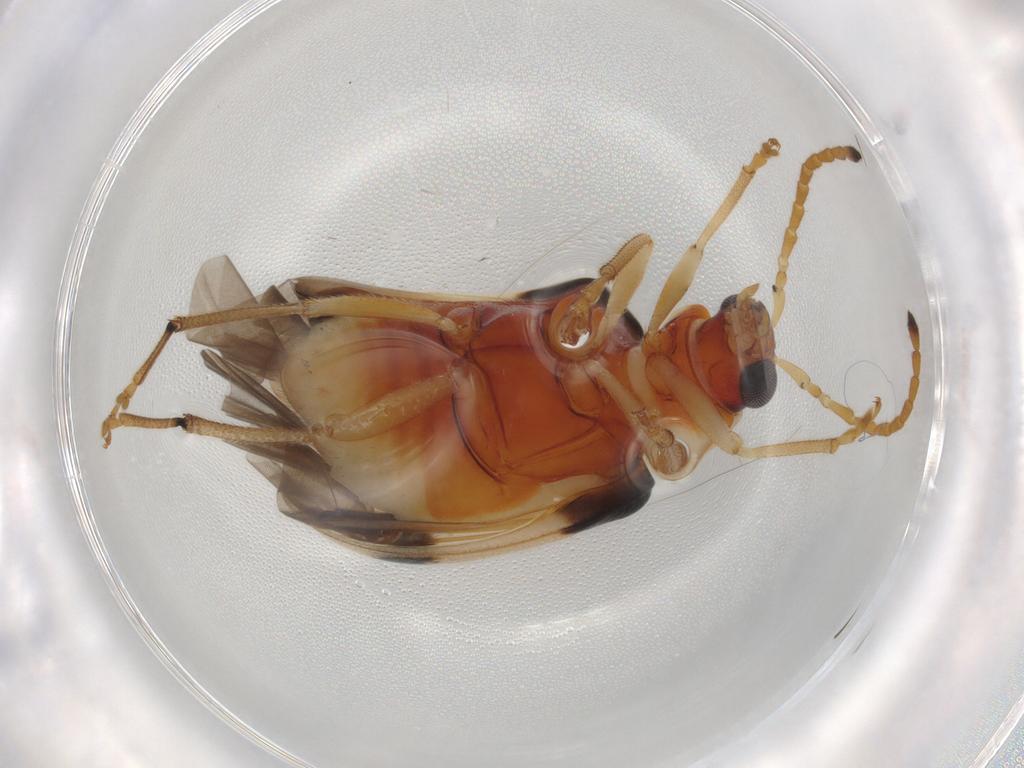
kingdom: Animalia
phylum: Arthropoda
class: Insecta
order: Coleoptera
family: Chrysomelidae
